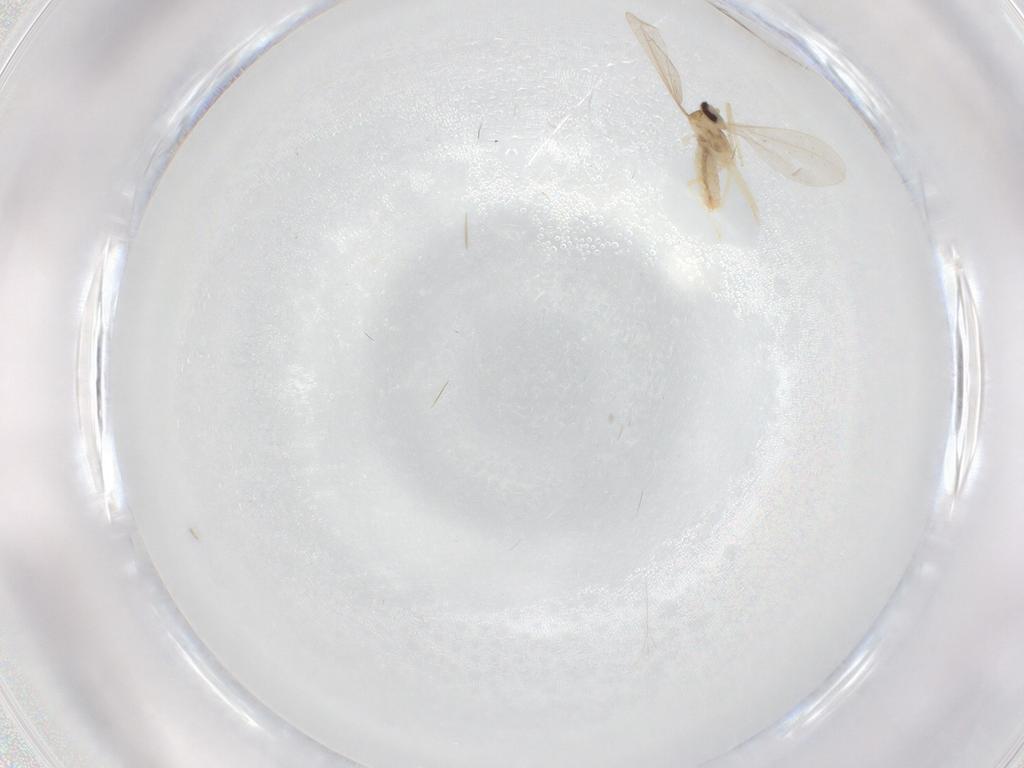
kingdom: Animalia
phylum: Arthropoda
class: Insecta
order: Diptera
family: Cecidomyiidae
